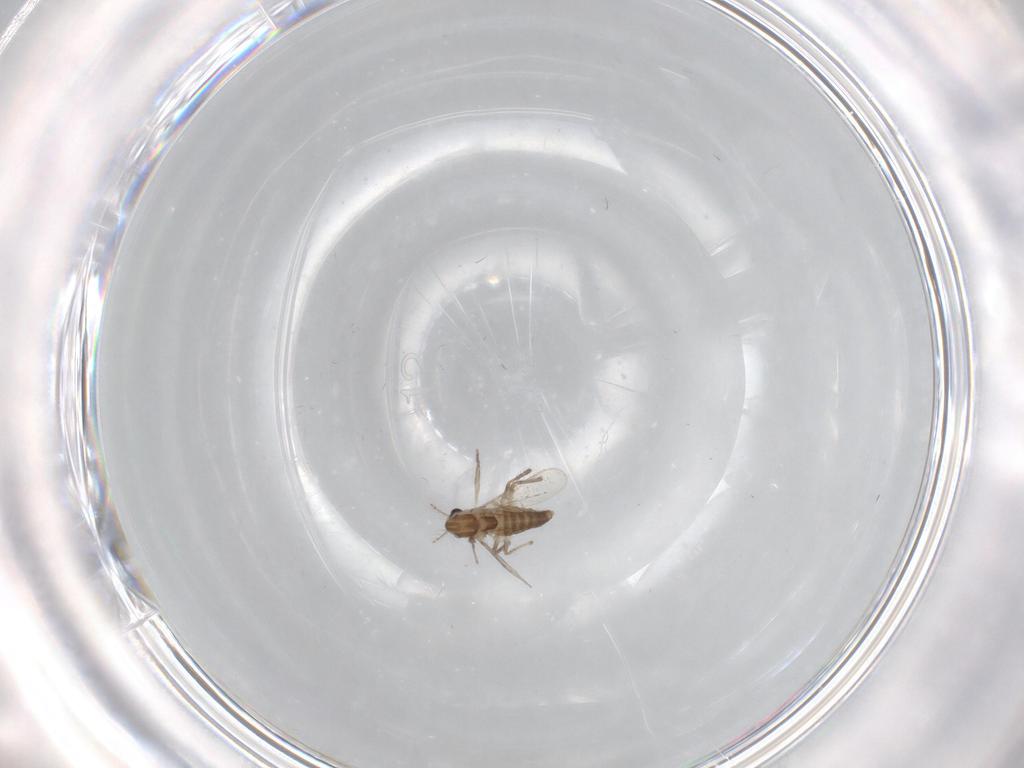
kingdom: Animalia
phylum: Arthropoda
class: Insecta
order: Diptera
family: Chironomidae
